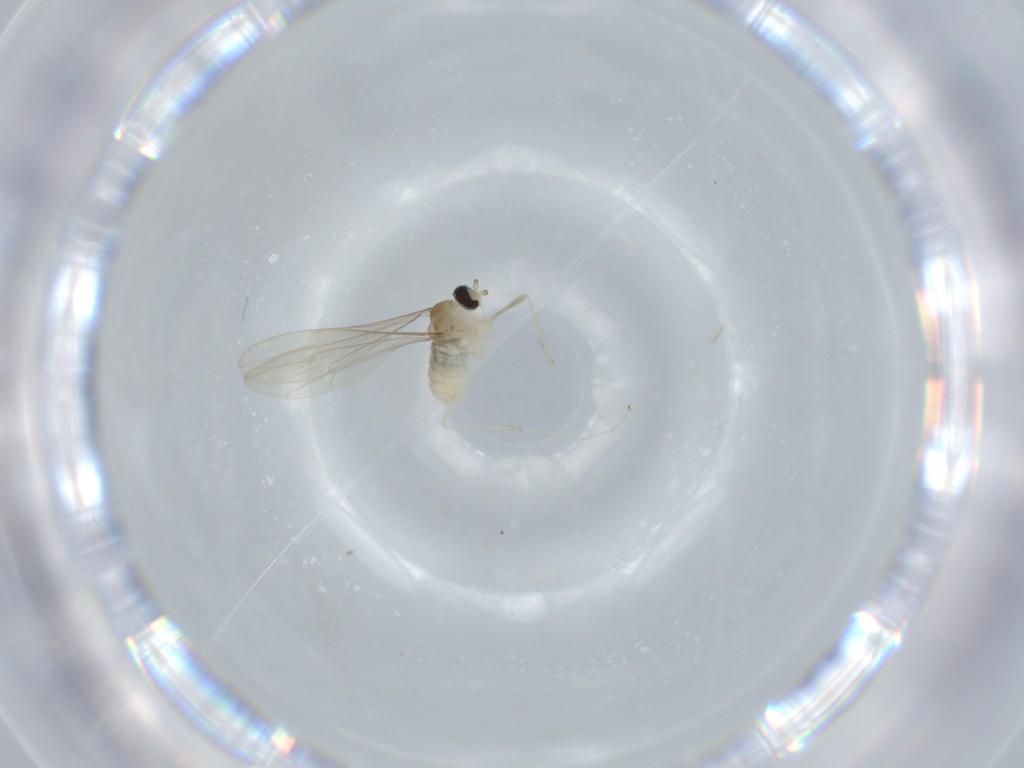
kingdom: Animalia
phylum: Arthropoda
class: Insecta
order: Diptera
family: Cecidomyiidae
